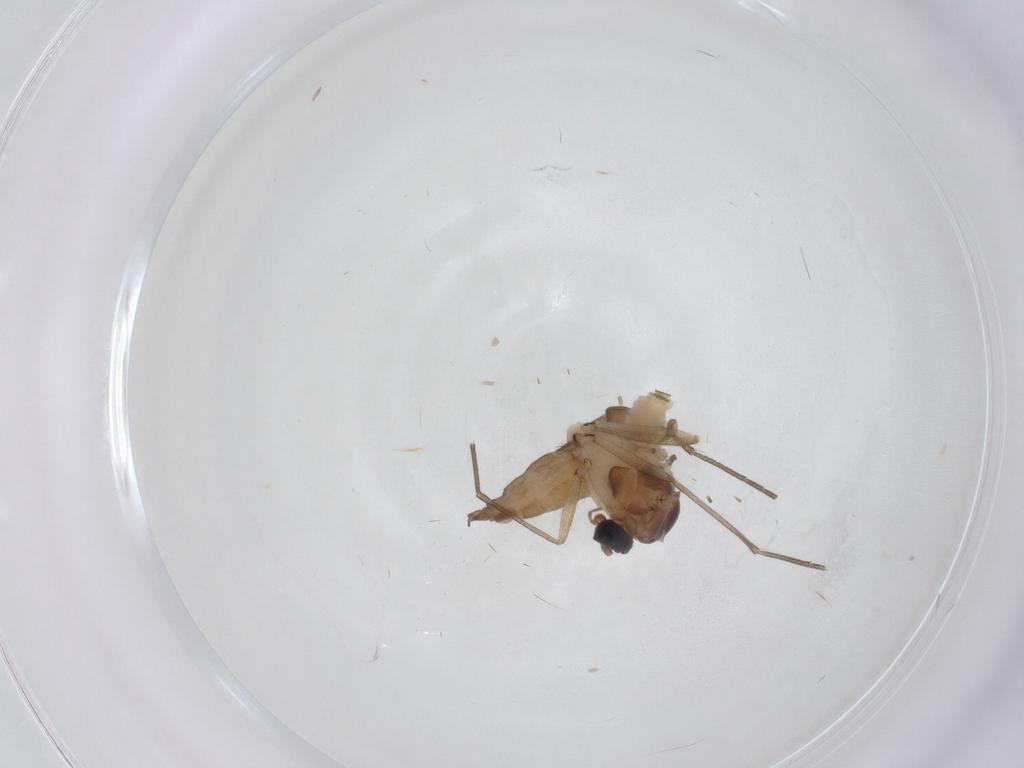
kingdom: Animalia
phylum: Arthropoda
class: Insecta
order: Diptera
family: Sciaridae
